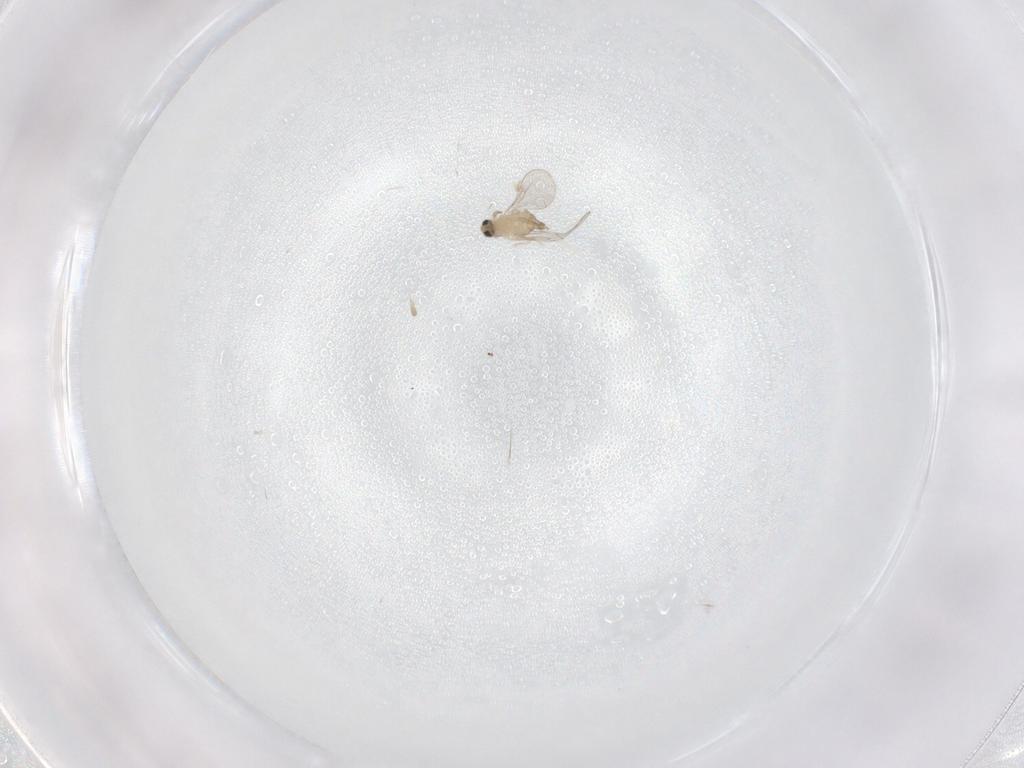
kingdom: Animalia
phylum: Arthropoda
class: Insecta
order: Diptera
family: Cecidomyiidae
